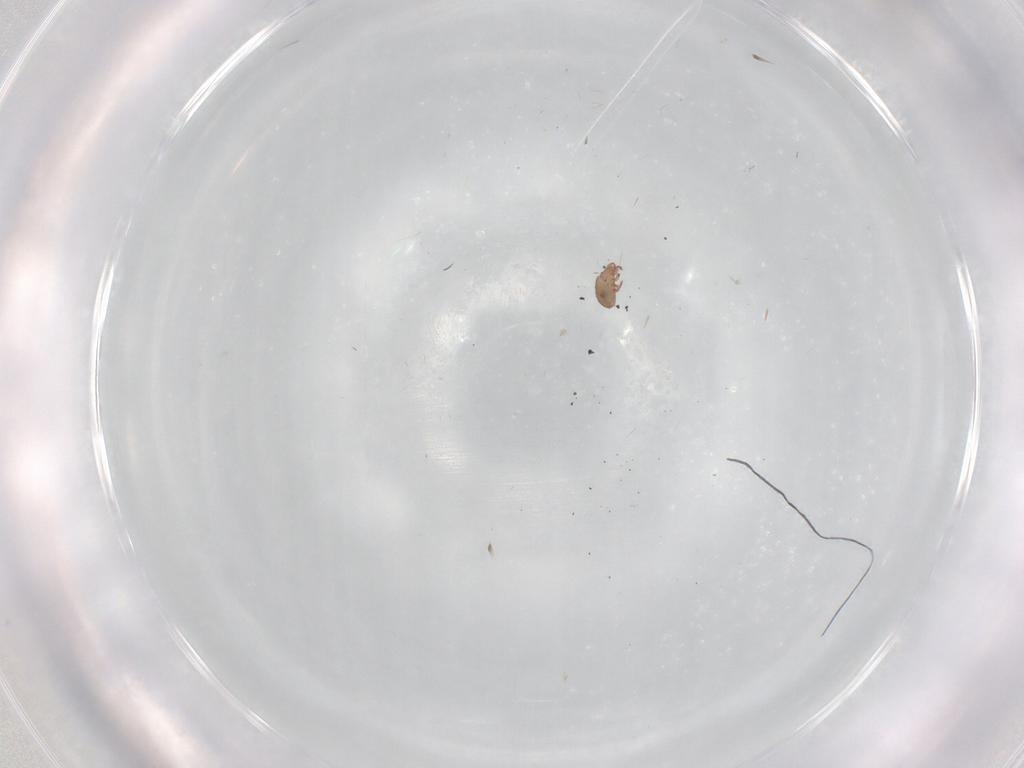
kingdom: Animalia
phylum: Arthropoda
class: Arachnida
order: Sarcoptiformes
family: Eremaeidae
